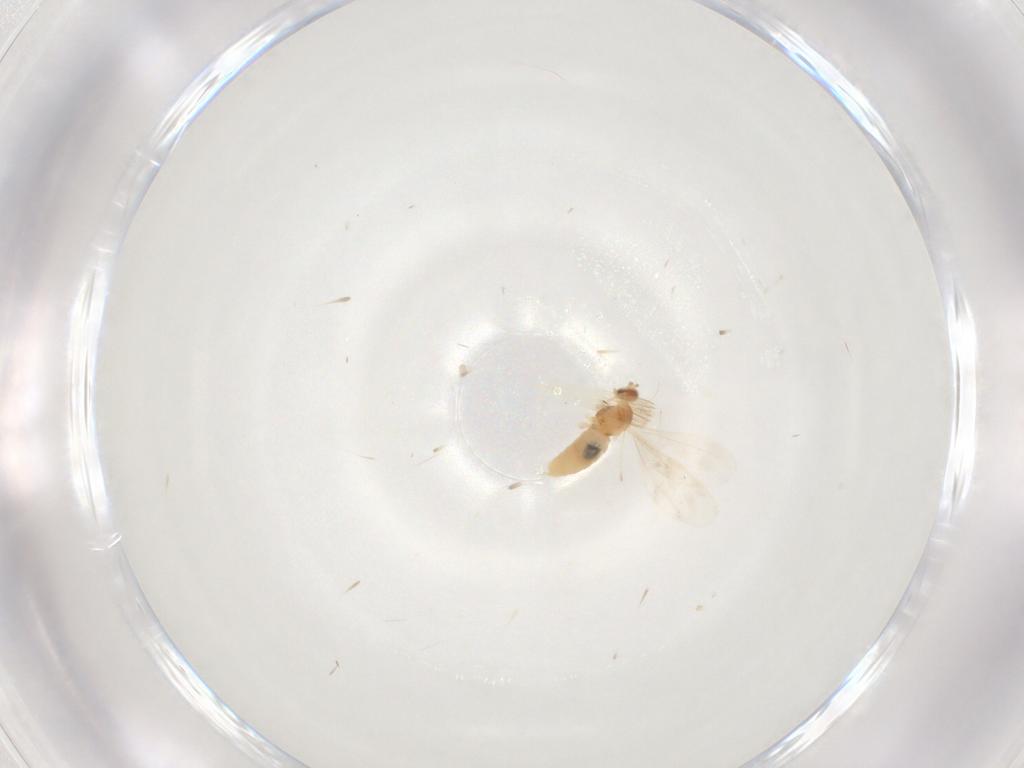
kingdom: Animalia
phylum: Arthropoda
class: Insecta
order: Diptera
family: Cecidomyiidae
